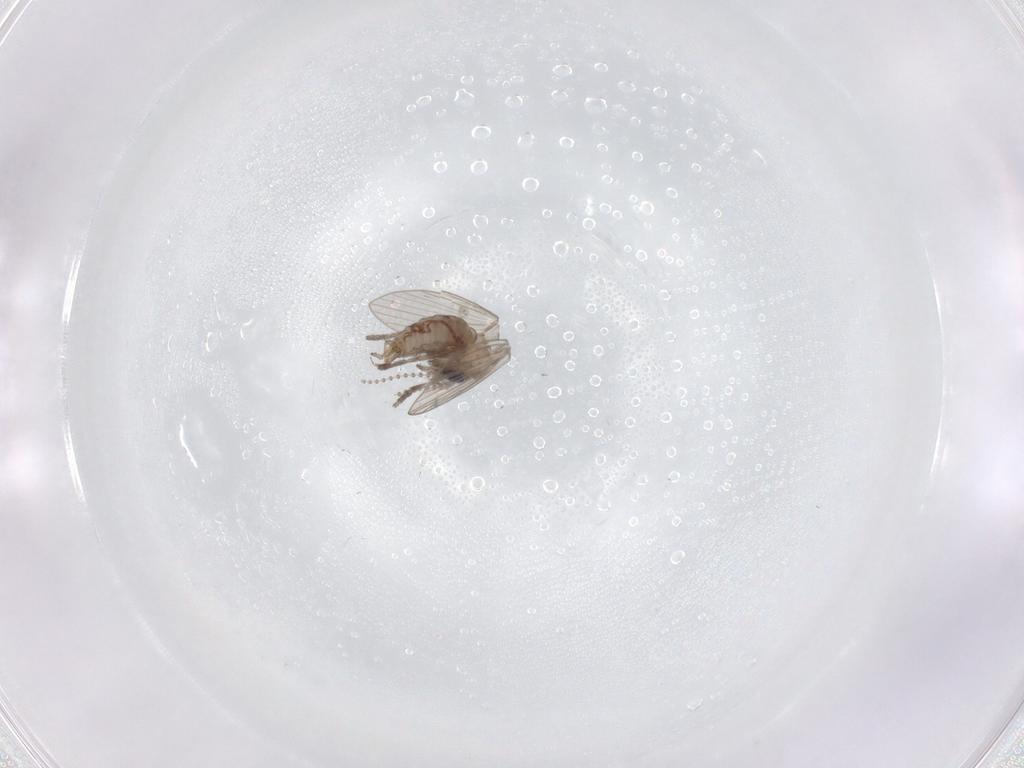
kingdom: Animalia
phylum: Arthropoda
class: Insecta
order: Diptera
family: Psychodidae
